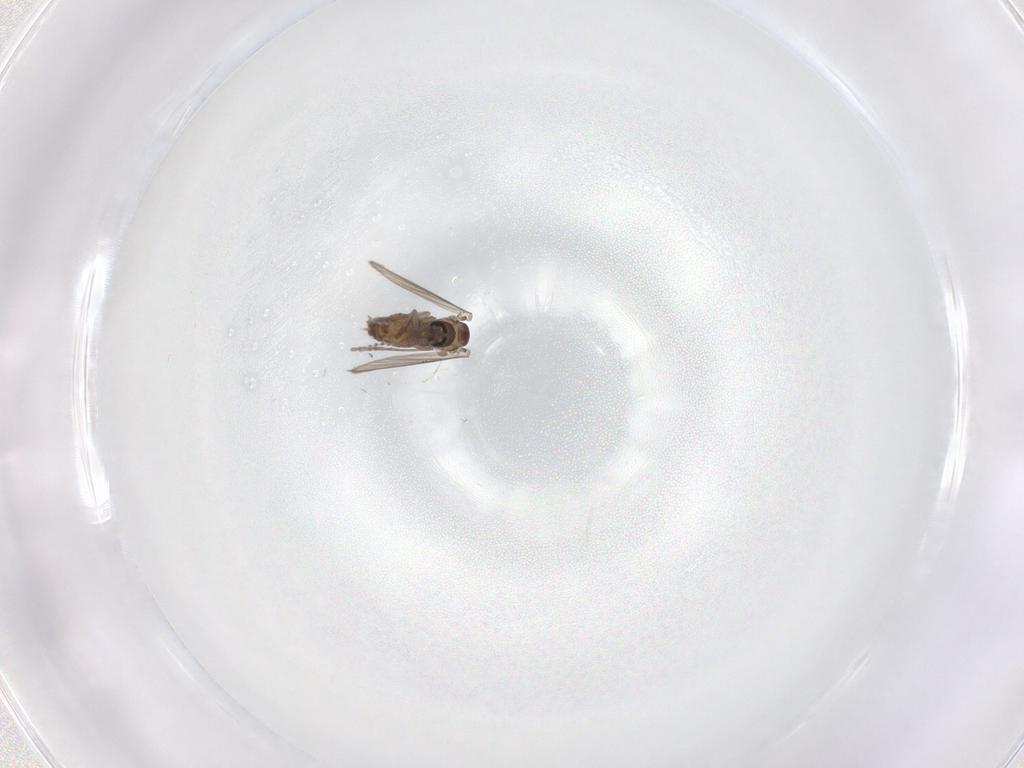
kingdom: Animalia
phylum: Arthropoda
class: Insecta
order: Diptera
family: Psychodidae
